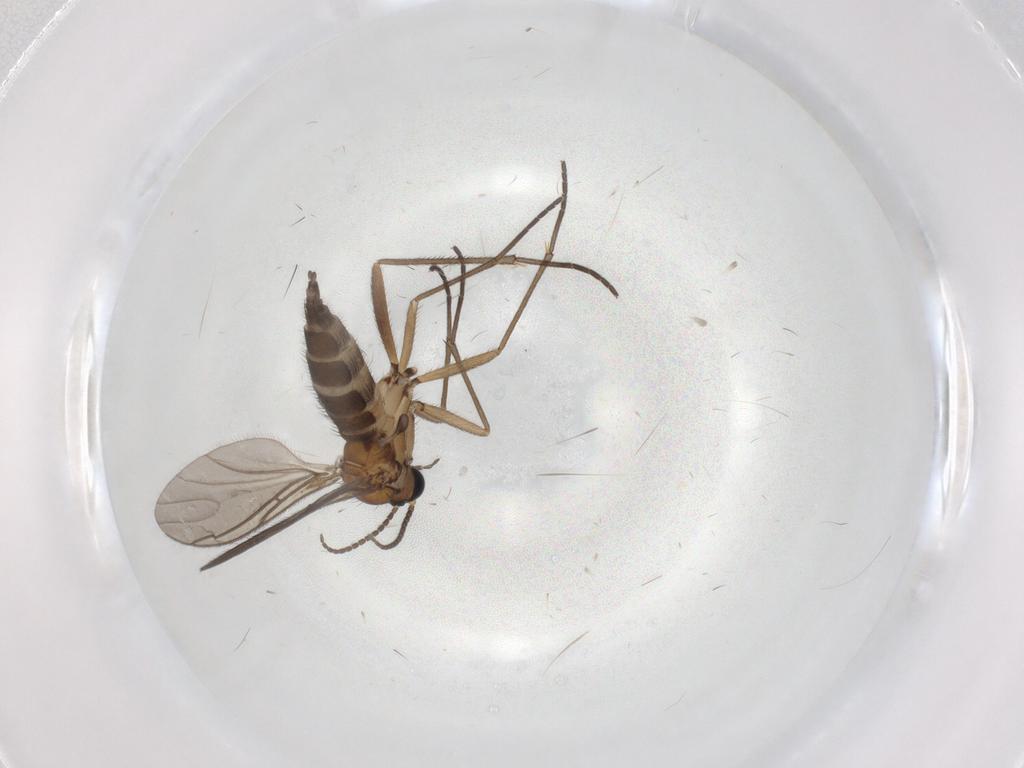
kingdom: Animalia
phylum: Arthropoda
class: Insecta
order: Diptera
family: Sciaridae
